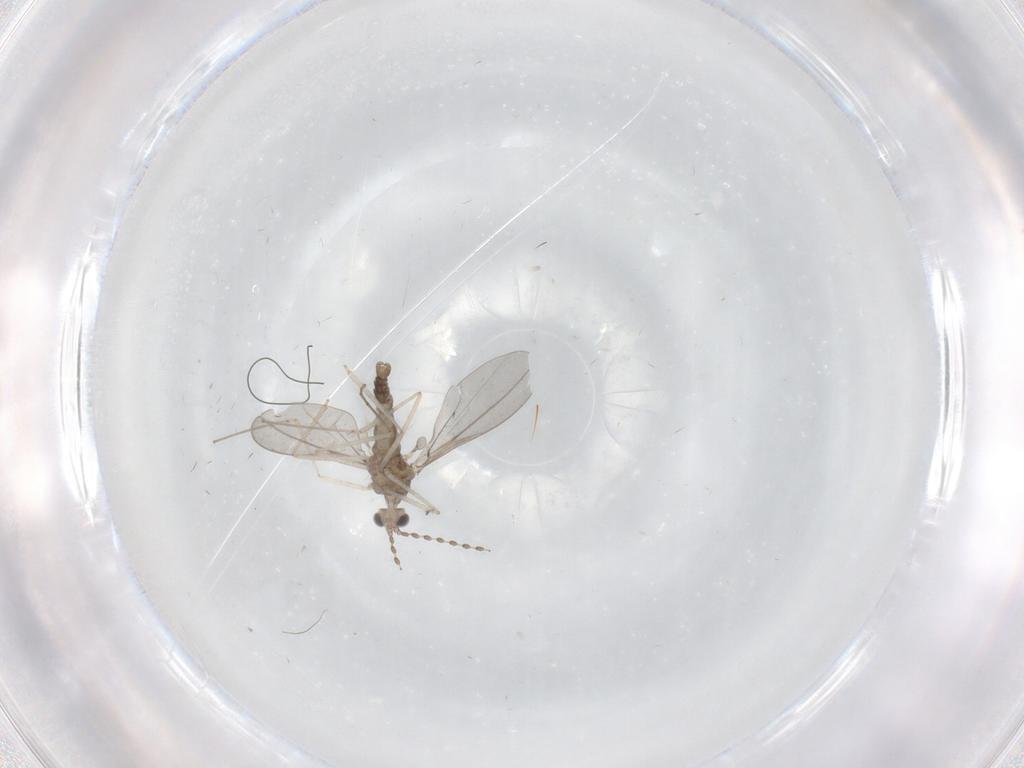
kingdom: Animalia
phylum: Arthropoda
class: Insecta
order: Diptera
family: Cecidomyiidae
